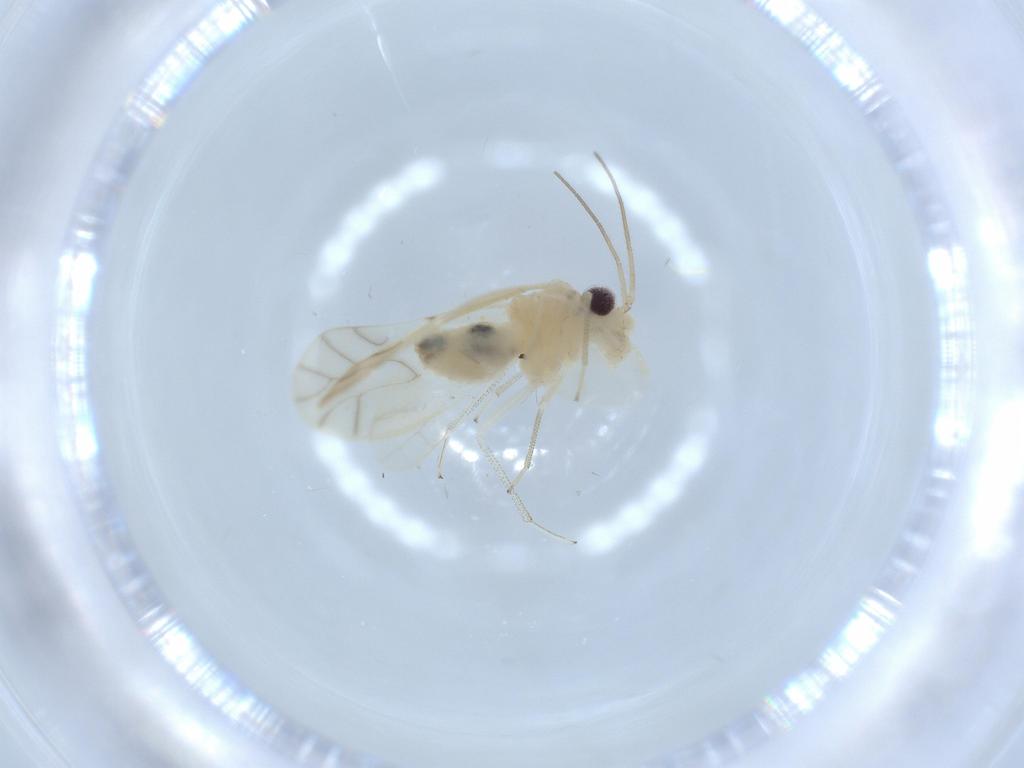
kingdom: Animalia
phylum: Arthropoda
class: Insecta
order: Psocodea
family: Caeciliusidae
